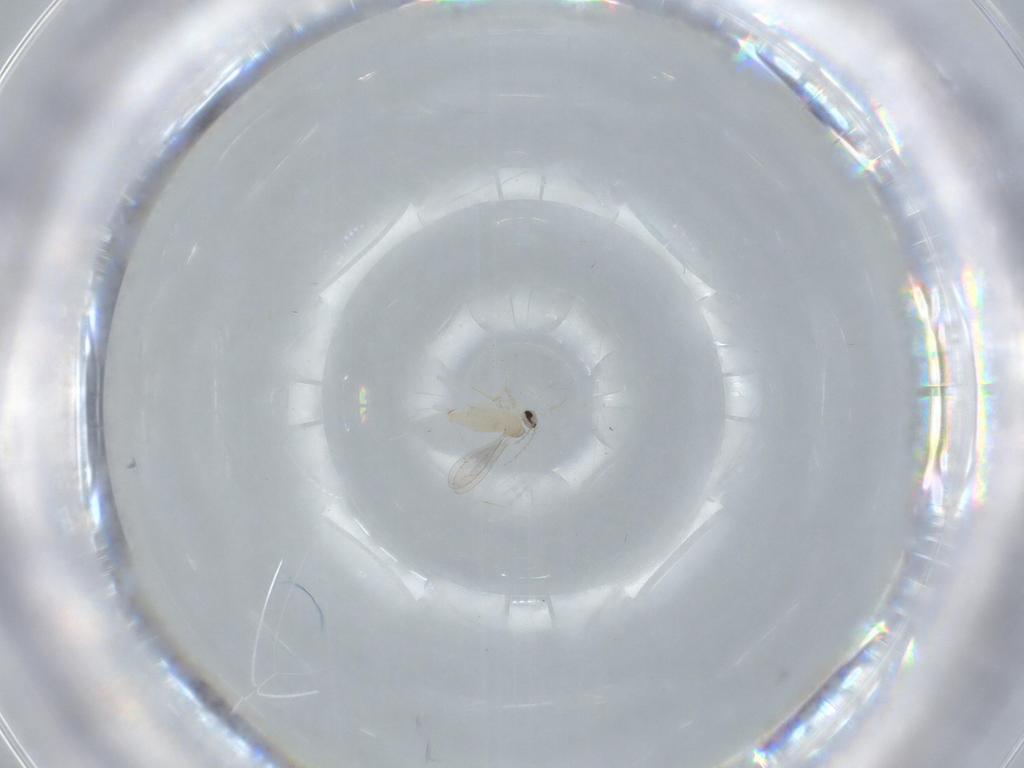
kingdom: Animalia
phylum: Arthropoda
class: Insecta
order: Diptera
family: Cecidomyiidae
